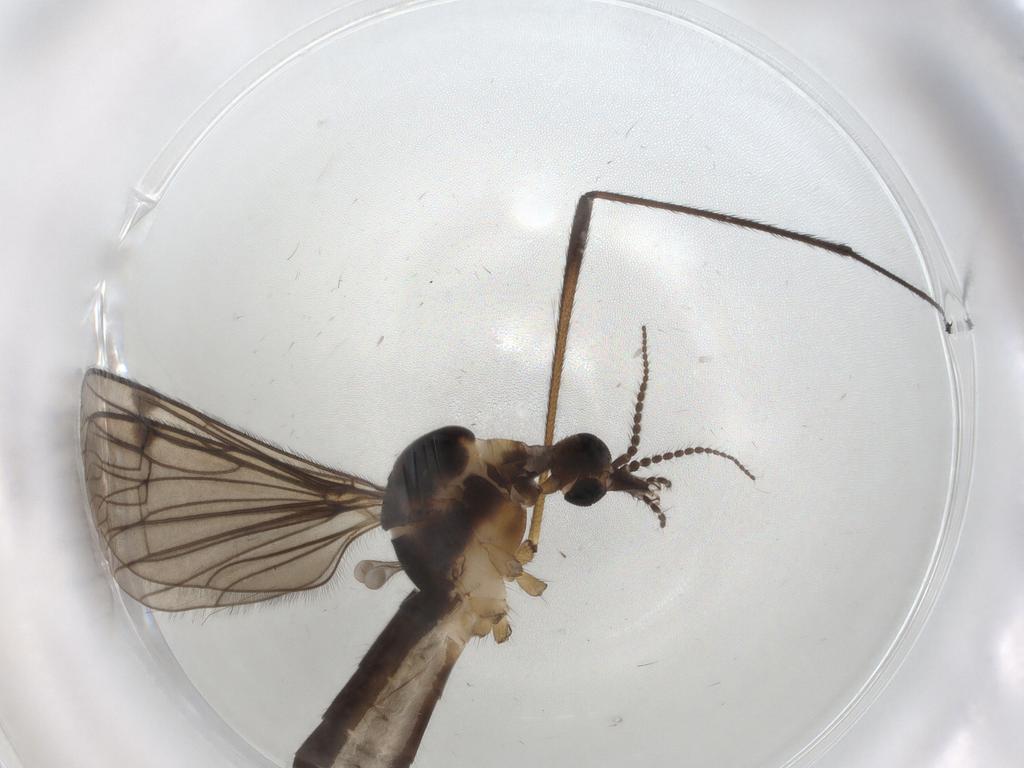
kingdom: Animalia
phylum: Arthropoda
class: Insecta
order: Diptera
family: Limoniidae
